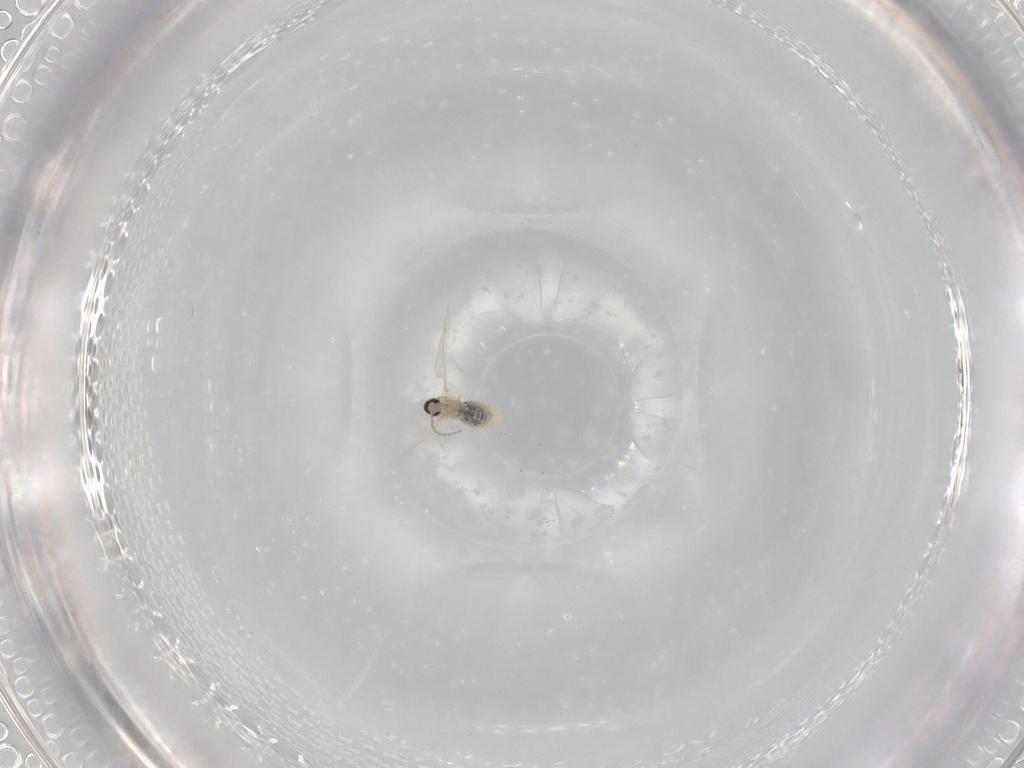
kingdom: Animalia
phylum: Arthropoda
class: Insecta
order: Diptera
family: Cecidomyiidae
